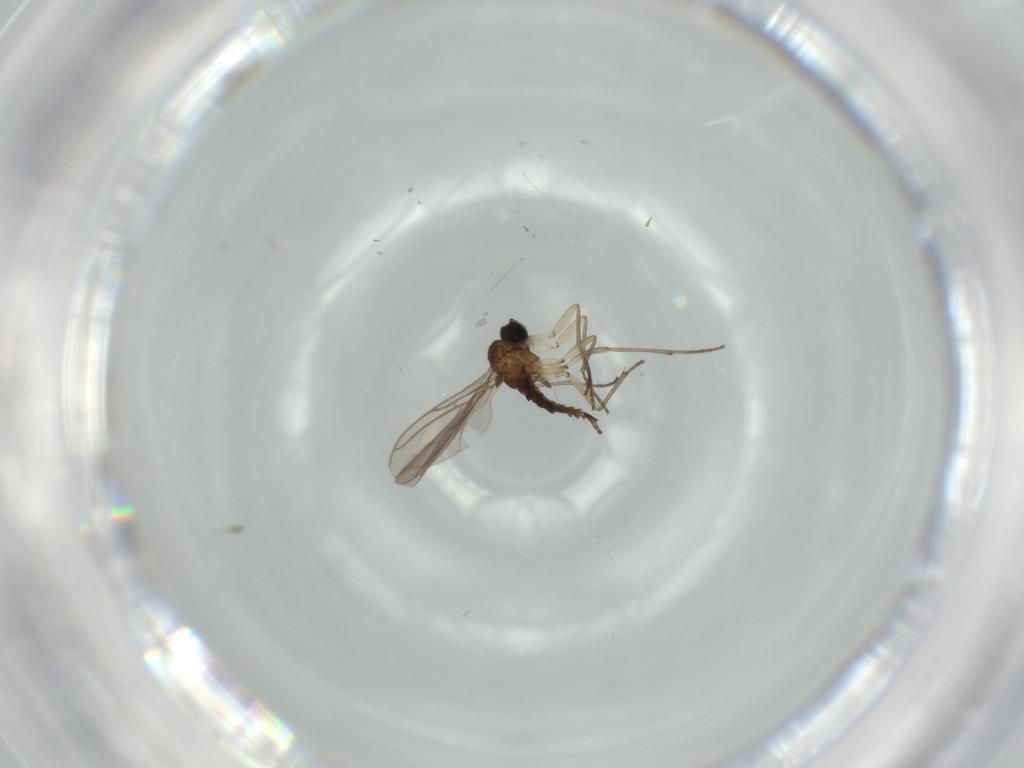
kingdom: Animalia
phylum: Arthropoda
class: Insecta
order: Diptera
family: Sciaridae
